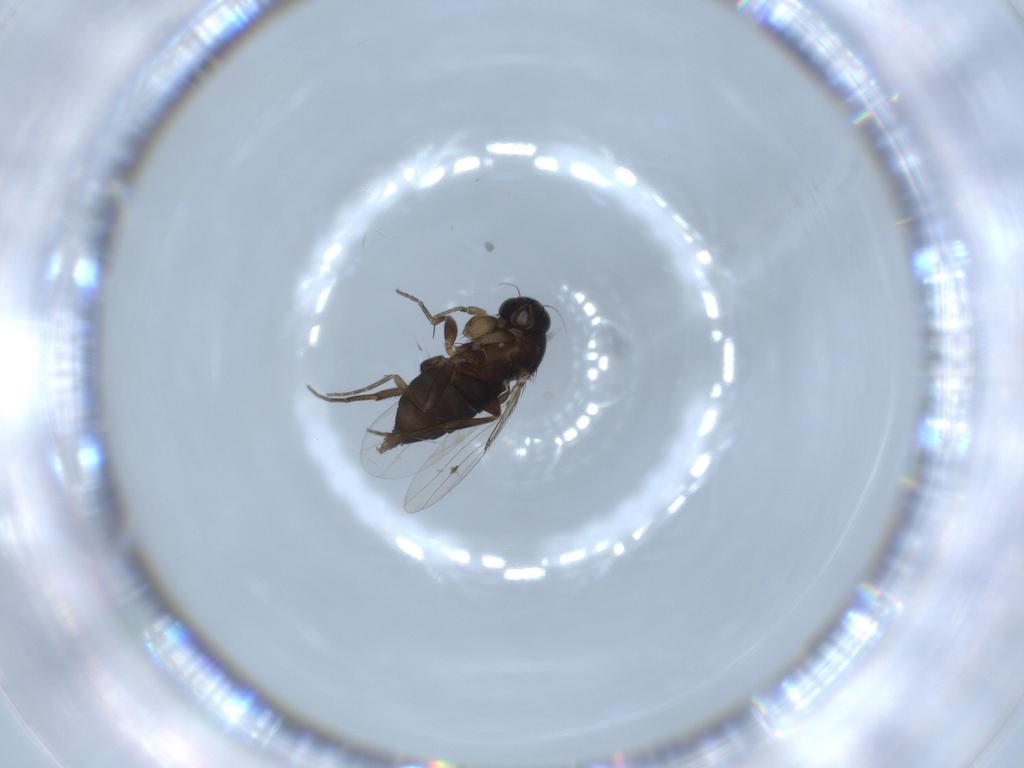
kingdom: Animalia
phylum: Arthropoda
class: Insecta
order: Diptera
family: Phoridae
